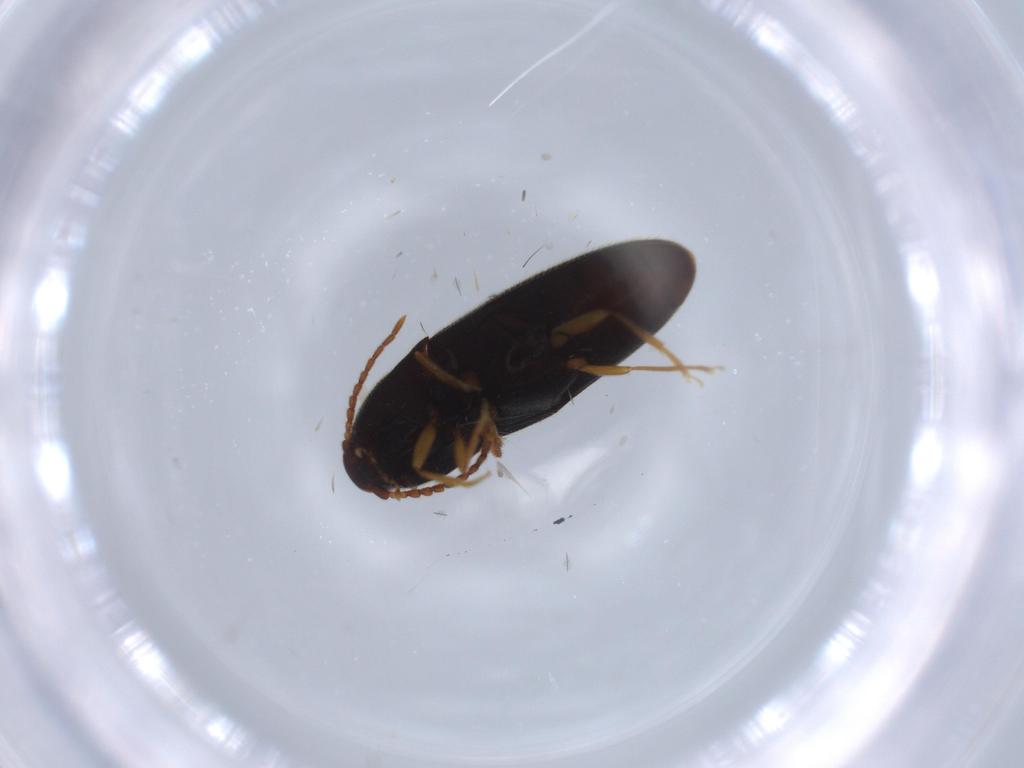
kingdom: Animalia
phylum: Arthropoda
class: Insecta
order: Coleoptera
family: Elateridae
